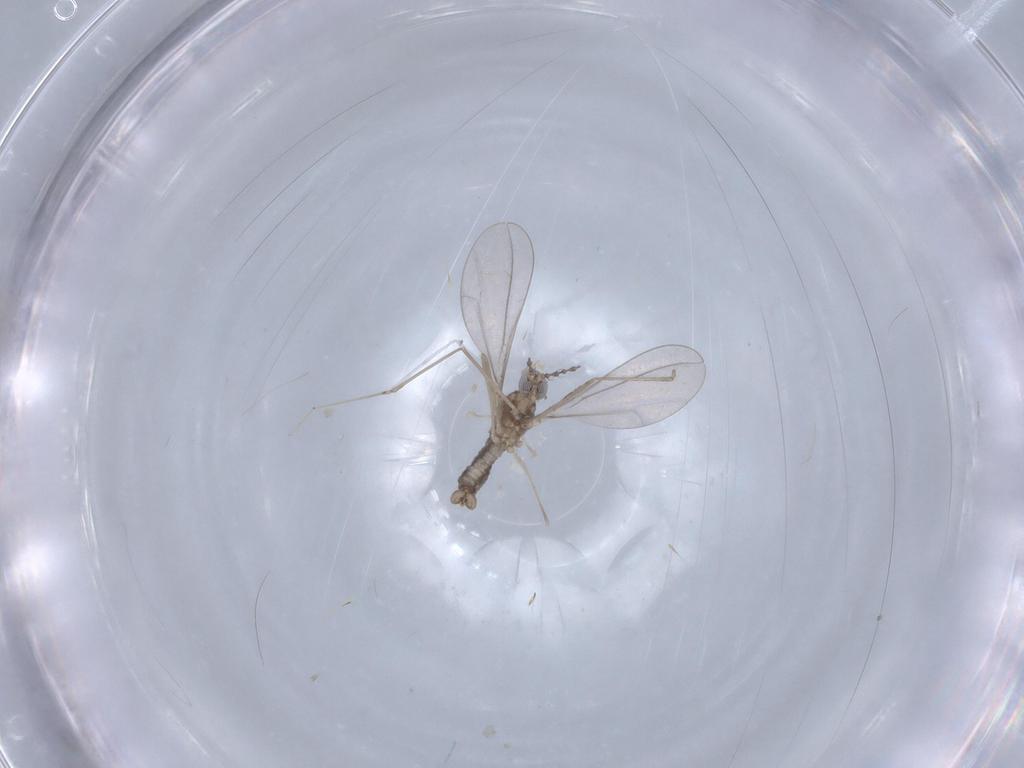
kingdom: Animalia
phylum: Arthropoda
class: Insecta
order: Diptera
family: Cecidomyiidae
